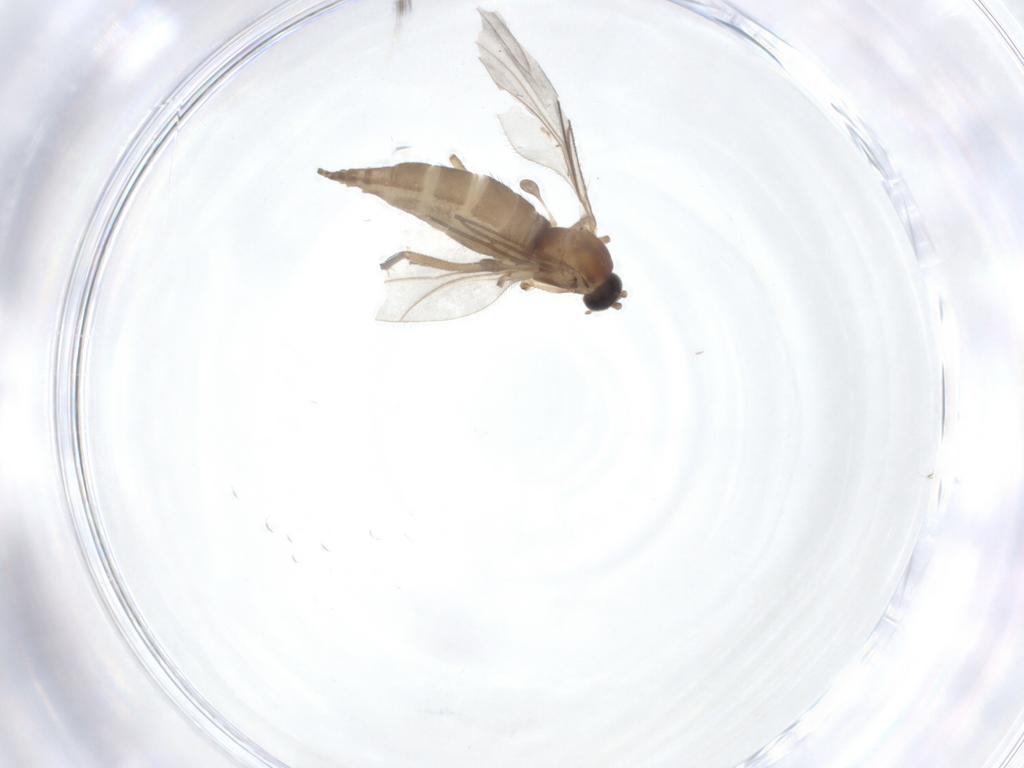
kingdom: Animalia
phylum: Arthropoda
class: Insecta
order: Diptera
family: Sciaridae
